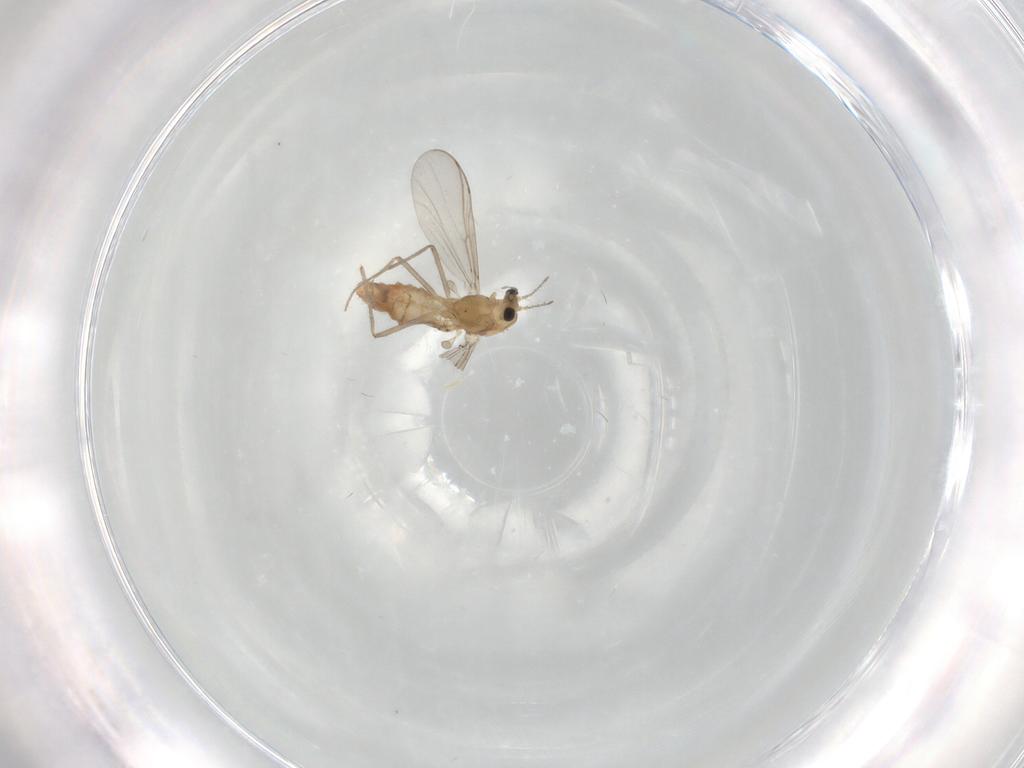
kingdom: Animalia
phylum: Arthropoda
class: Insecta
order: Diptera
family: Chironomidae
